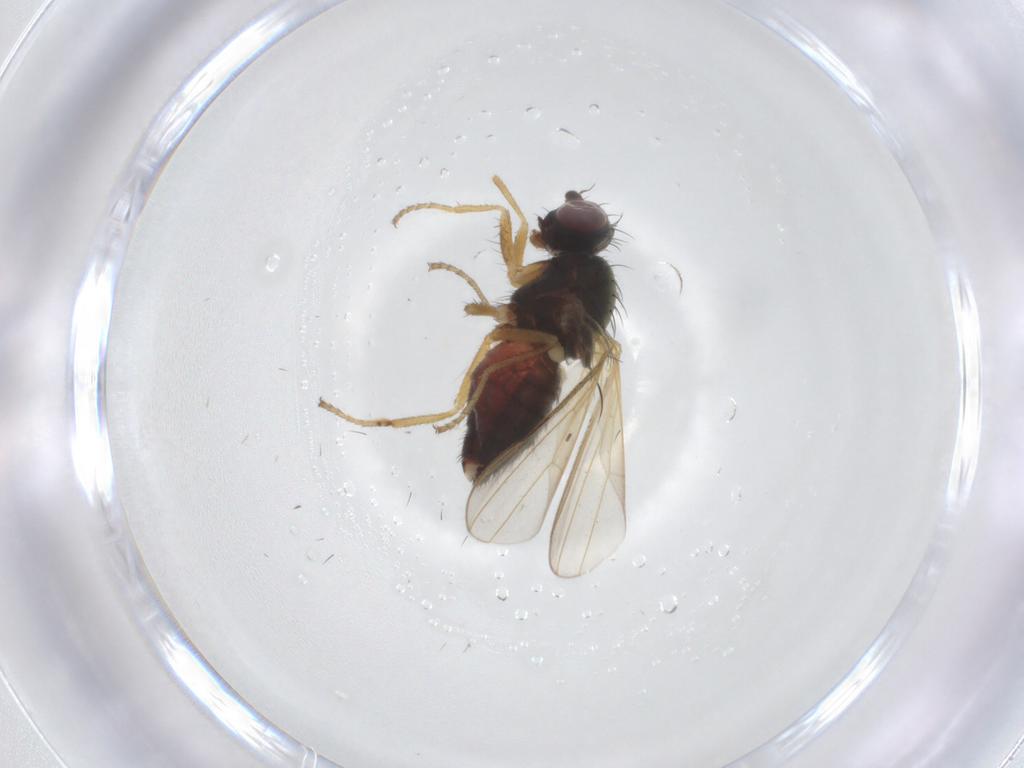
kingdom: Animalia
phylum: Arthropoda
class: Insecta
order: Diptera
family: Heleomyzidae
